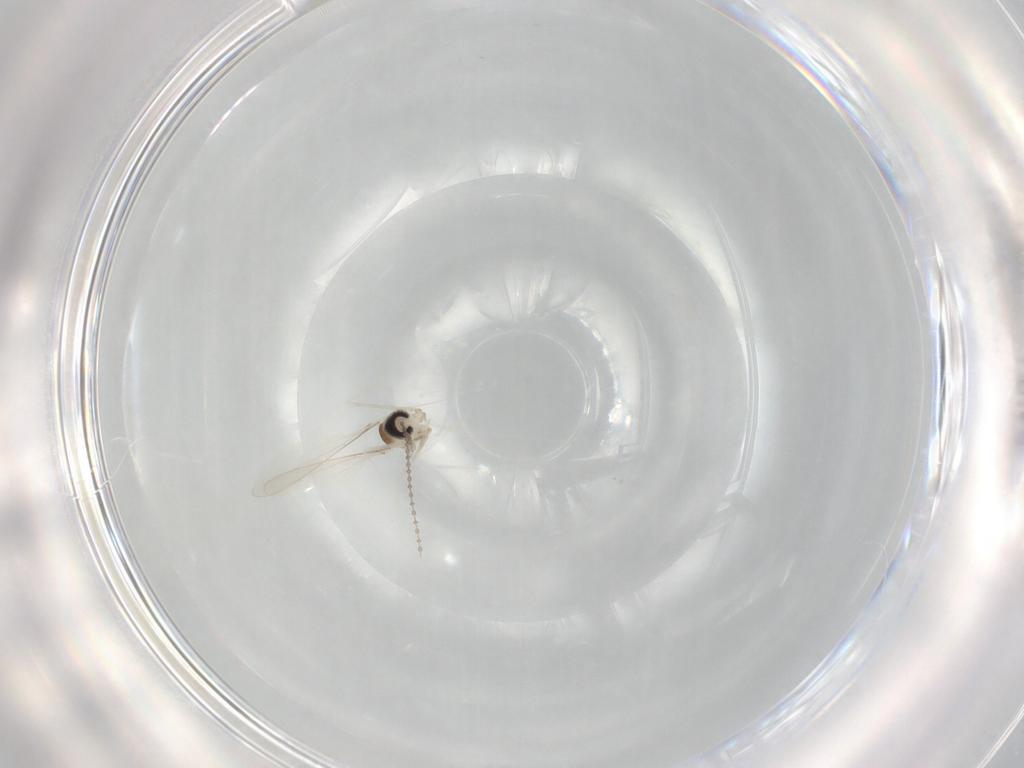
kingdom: Animalia
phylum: Arthropoda
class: Insecta
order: Diptera
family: Cecidomyiidae
